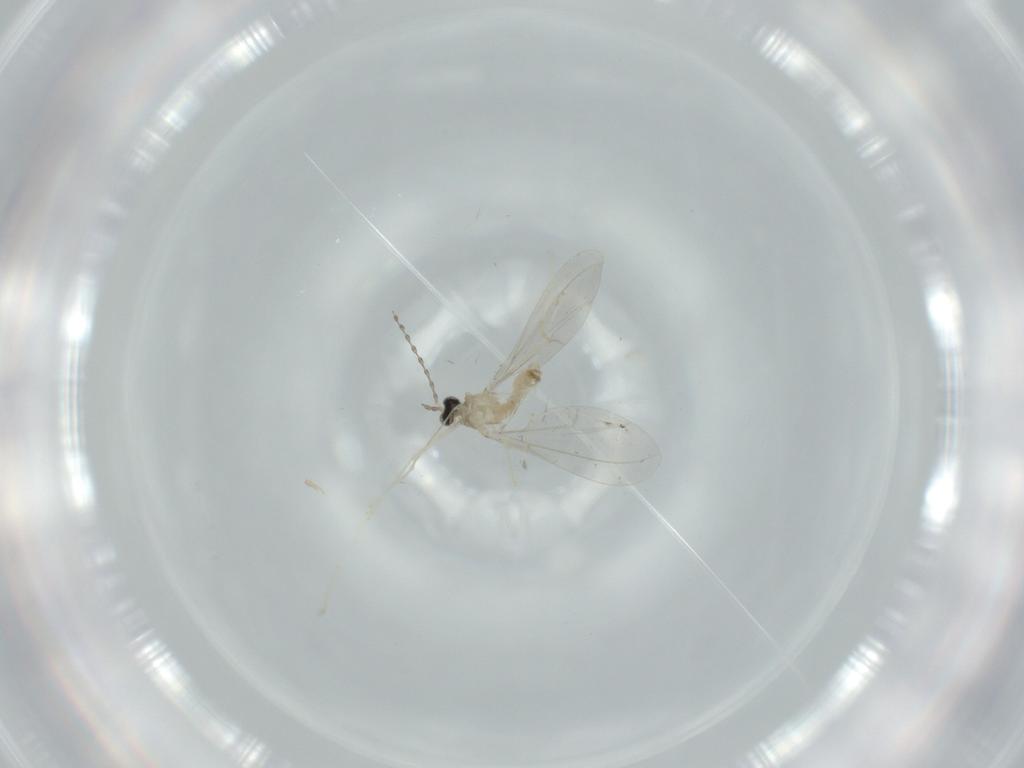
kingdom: Animalia
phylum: Arthropoda
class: Insecta
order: Diptera
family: Cecidomyiidae
